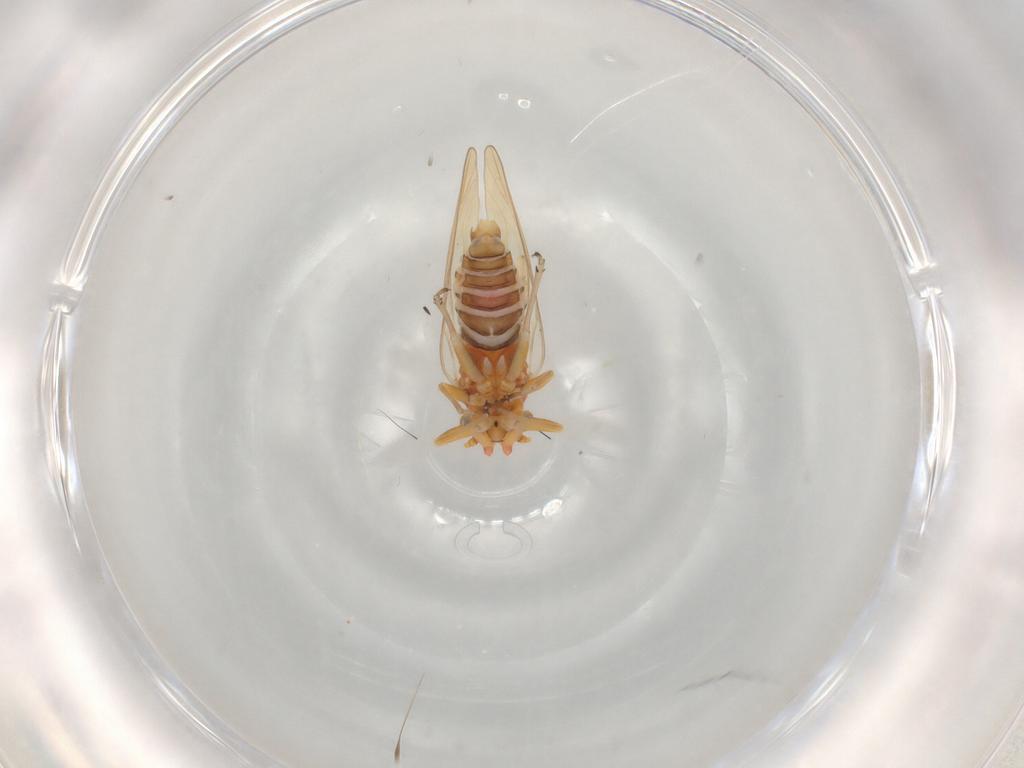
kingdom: Animalia
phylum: Arthropoda
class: Insecta
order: Hemiptera
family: Psyllidae
